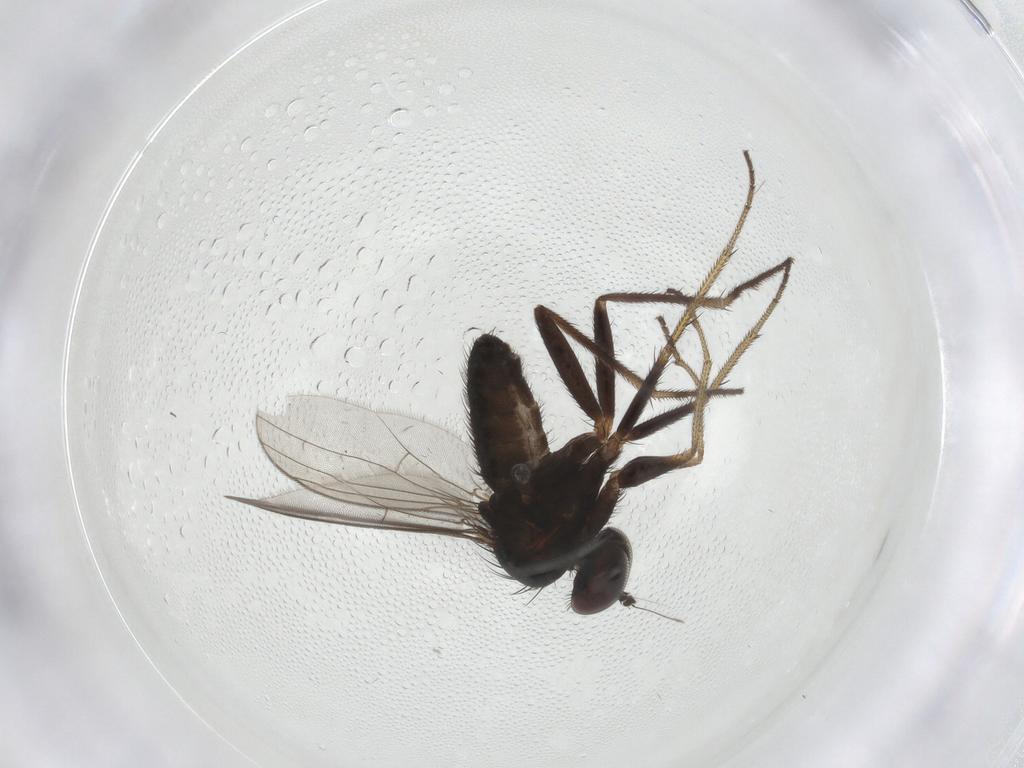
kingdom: Animalia
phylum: Arthropoda
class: Insecta
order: Diptera
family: Dolichopodidae
